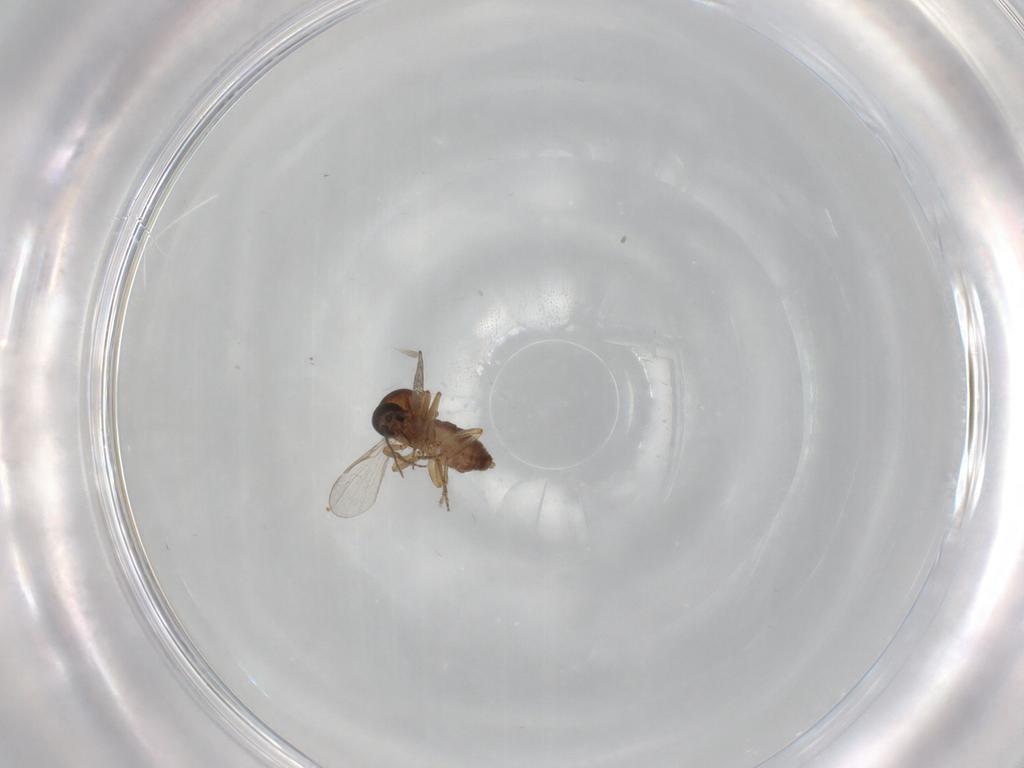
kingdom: Animalia
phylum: Arthropoda
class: Insecta
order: Diptera
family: Ceratopogonidae
